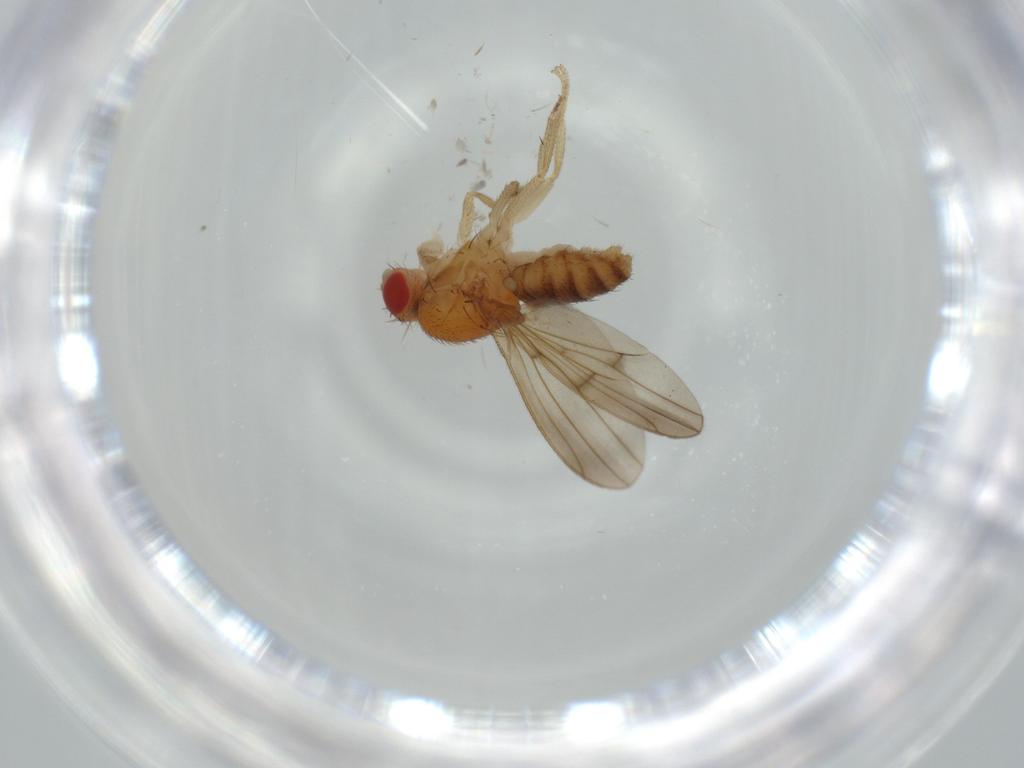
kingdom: Animalia
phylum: Arthropoda
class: Insecta
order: Diptera
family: Drosophilidae
